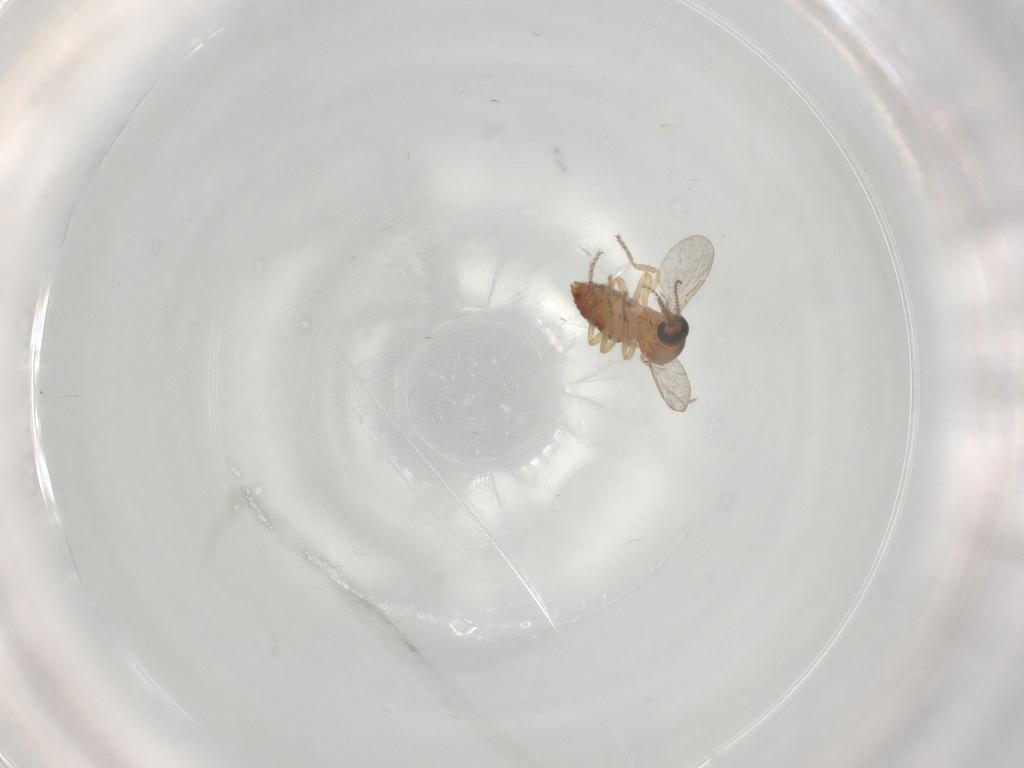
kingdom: Animalia
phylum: Arthropoda
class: Insecta
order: Diptera
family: Ceratopogonidae
